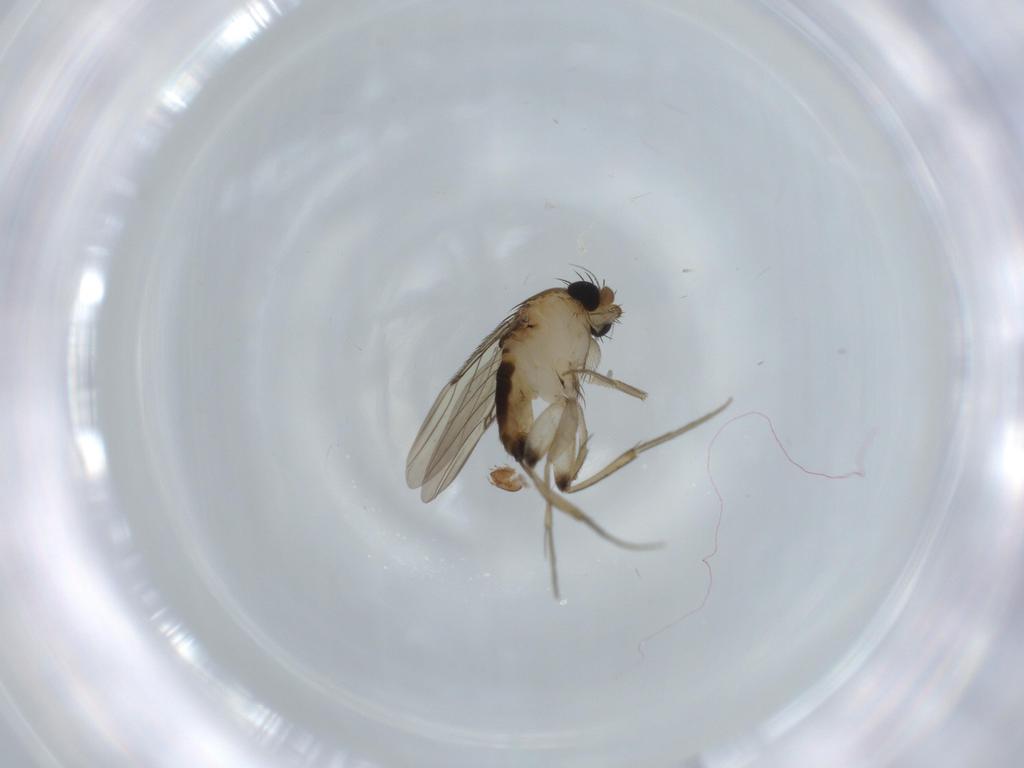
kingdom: Animalia
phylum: Arthropoda
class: Insecta
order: Diptera
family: Phoridae
